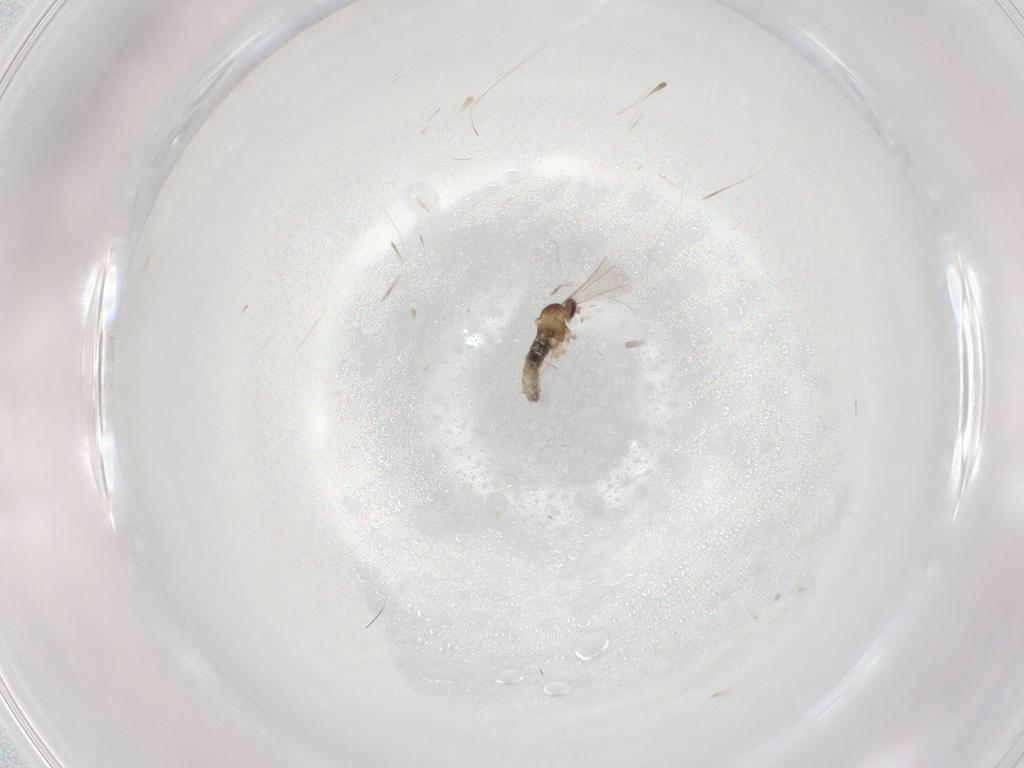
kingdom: Animalia
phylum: Arthropoda
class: Insecta
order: Diptera
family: Cecidomyiidae
